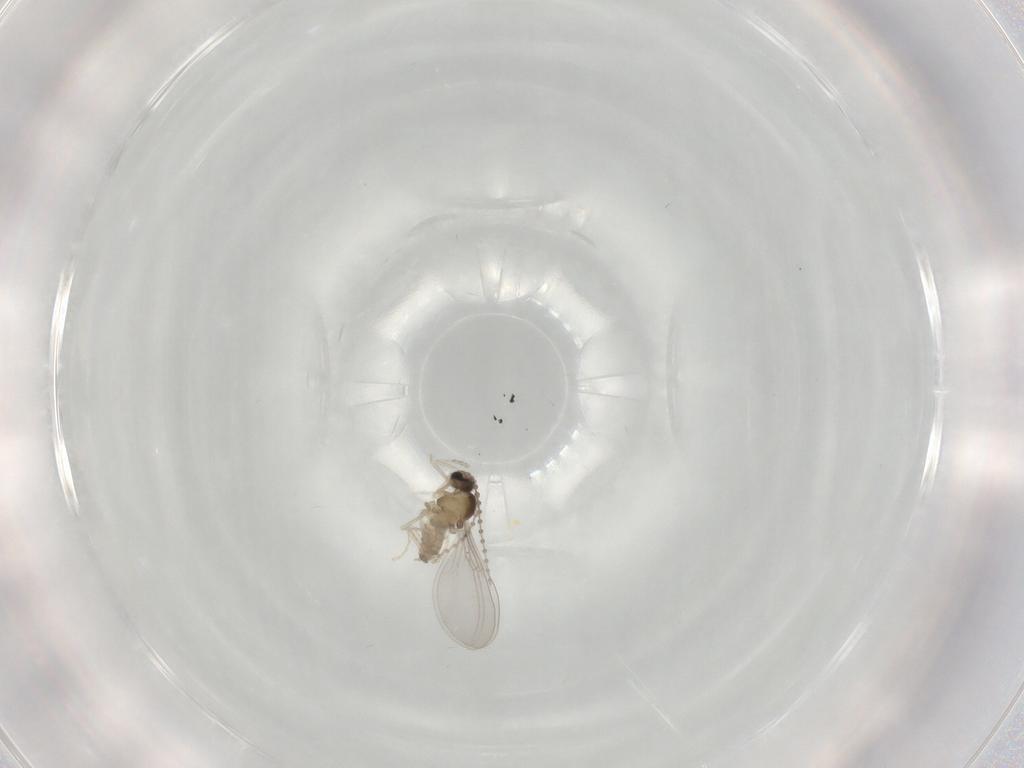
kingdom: Animalia
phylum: Arthropoda
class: Insecta
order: Diptera
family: Cecidomyiidae
